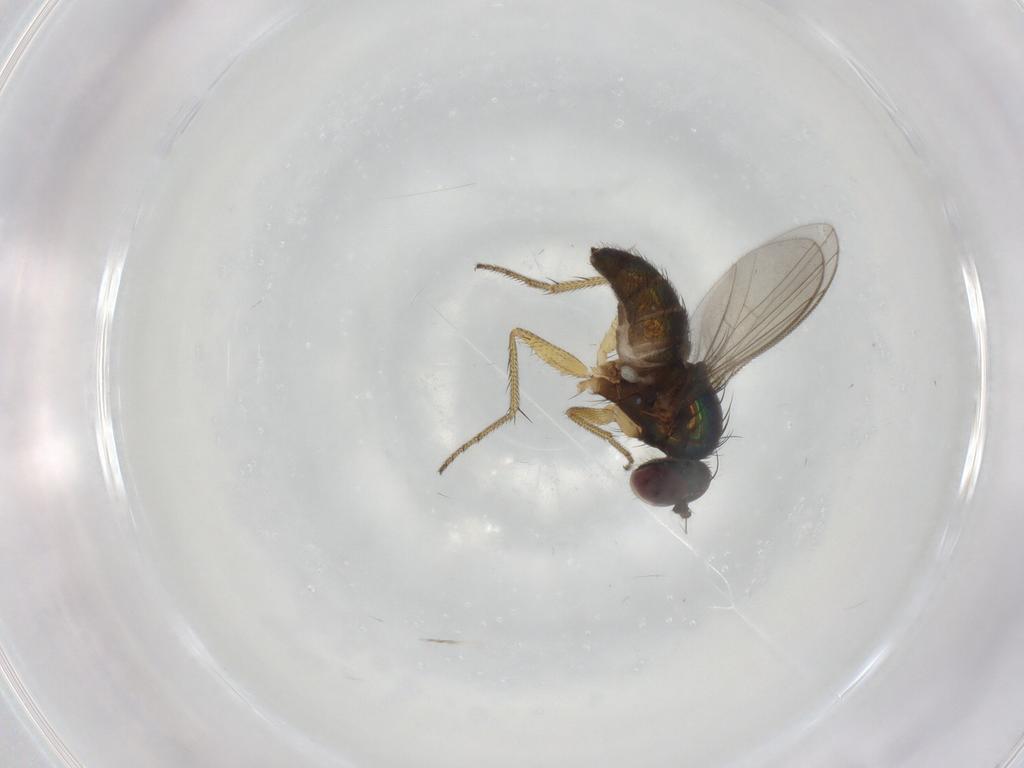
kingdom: Animalia
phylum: Arthropoda
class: Insecta
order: Diptera
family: Dolichopodidae
